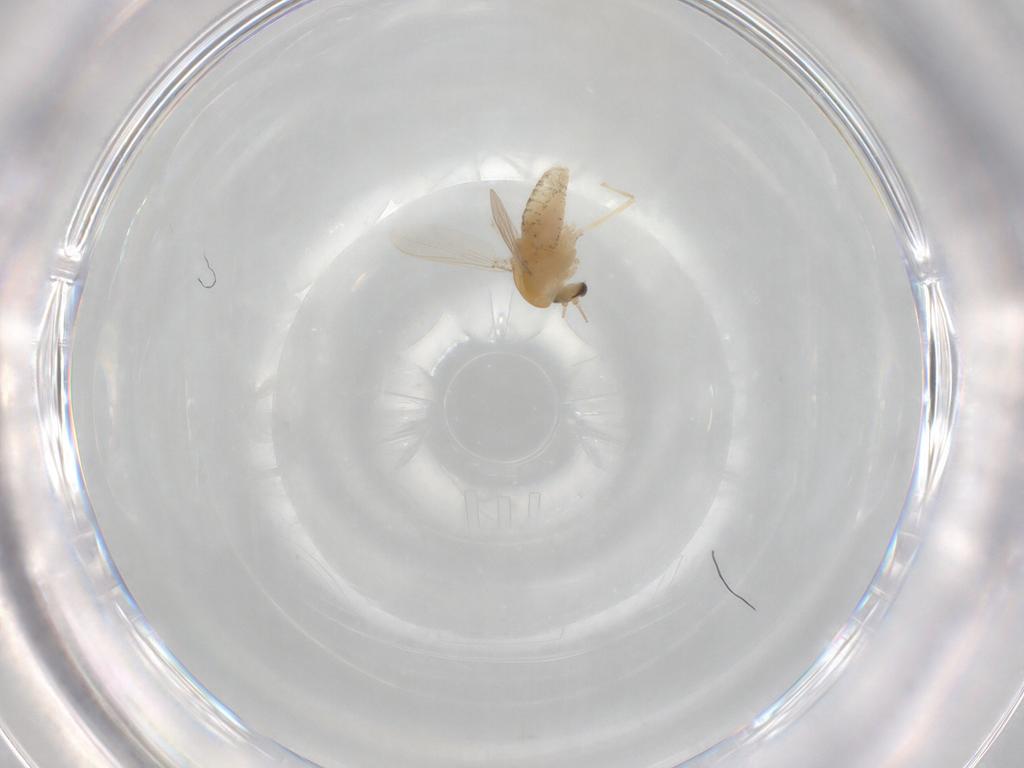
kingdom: Animalia
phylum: Arthropoda
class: Insecta
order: Diptera
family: Chironomidae
